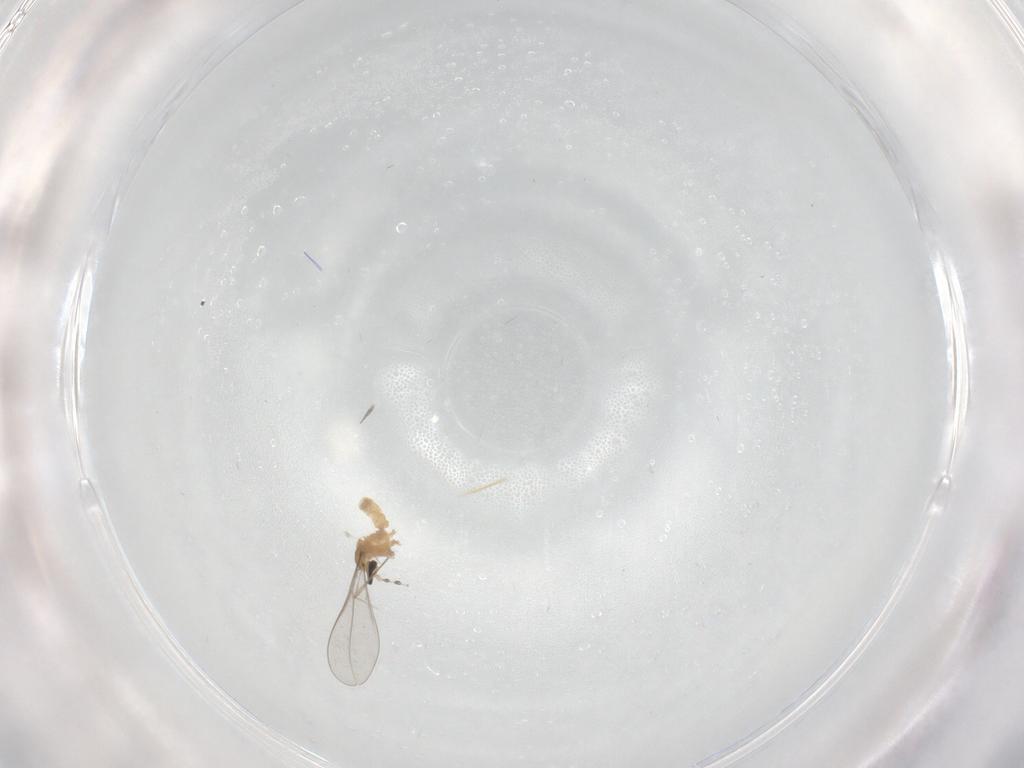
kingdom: Animalia
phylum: Arthropoda
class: Insecta
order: Diptera
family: Cecidomyiidae
